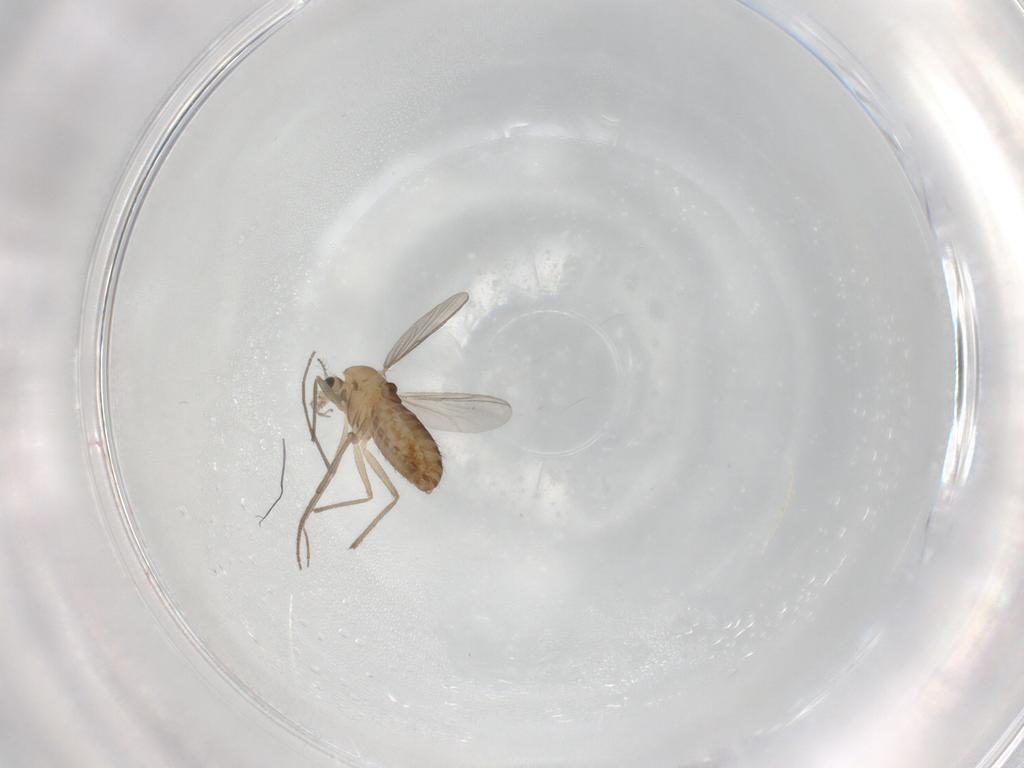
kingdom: Animalia
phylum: Arthropoda
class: Insecta
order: Diptera
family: Chironomidae
